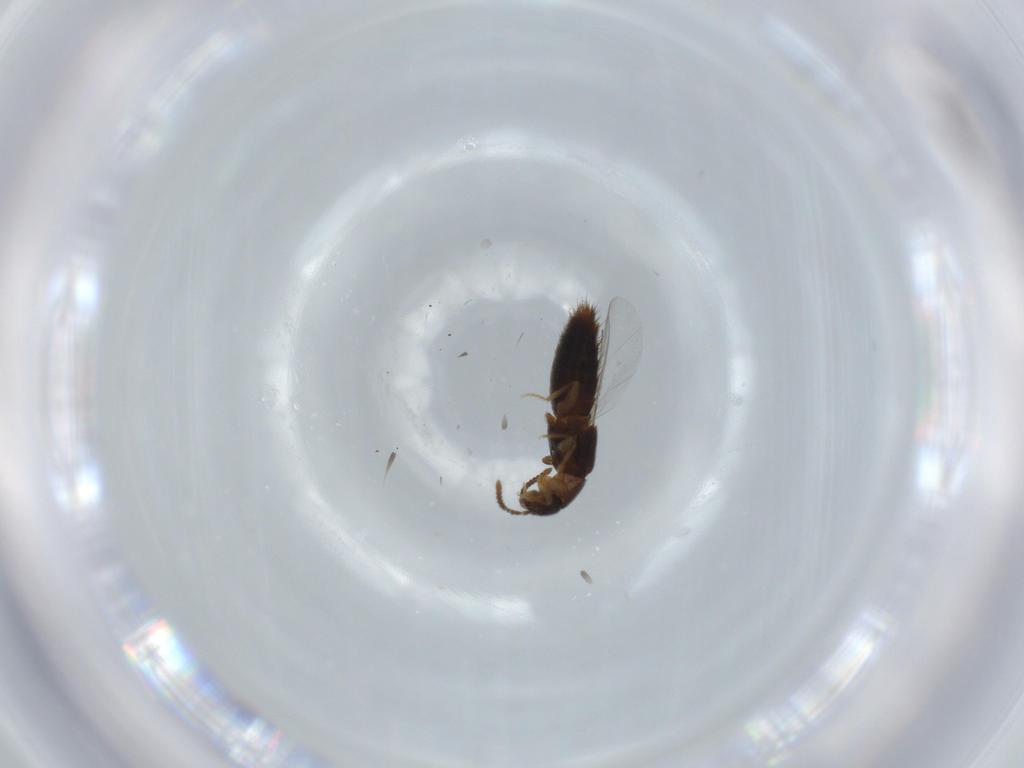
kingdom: Animalia
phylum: Arthropoda
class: Insecta
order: Coleoptera
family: Staphylinidae
